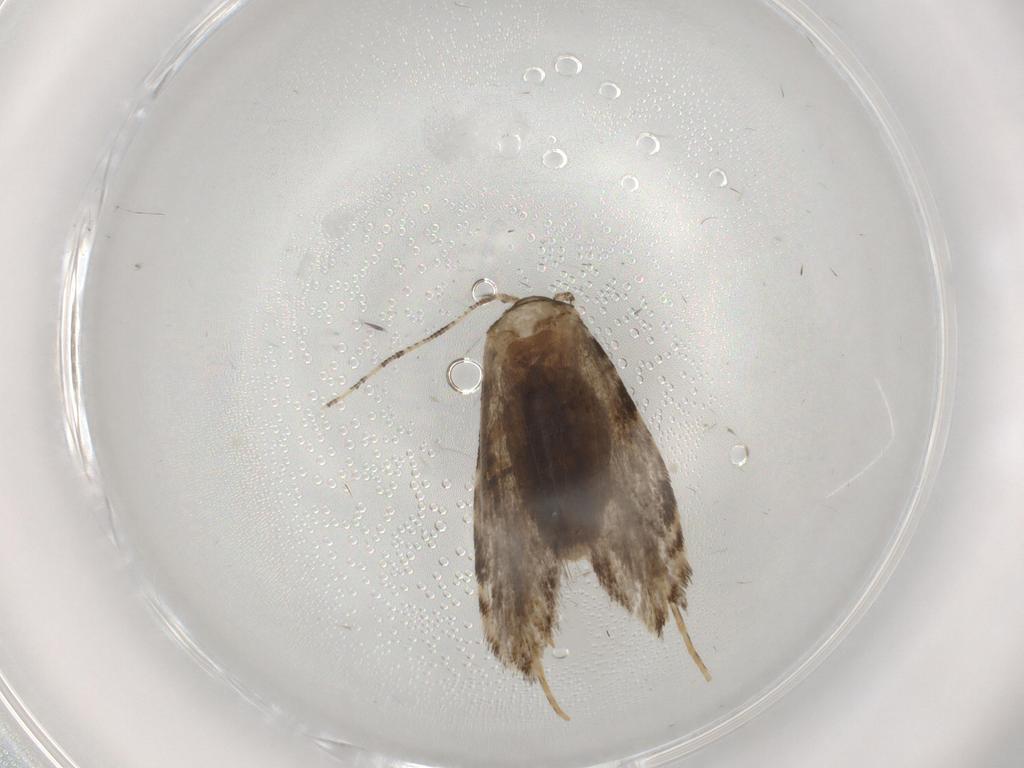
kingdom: Animalia
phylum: Arthropoda
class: Insecta
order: Lepidoptera
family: Tineidae
